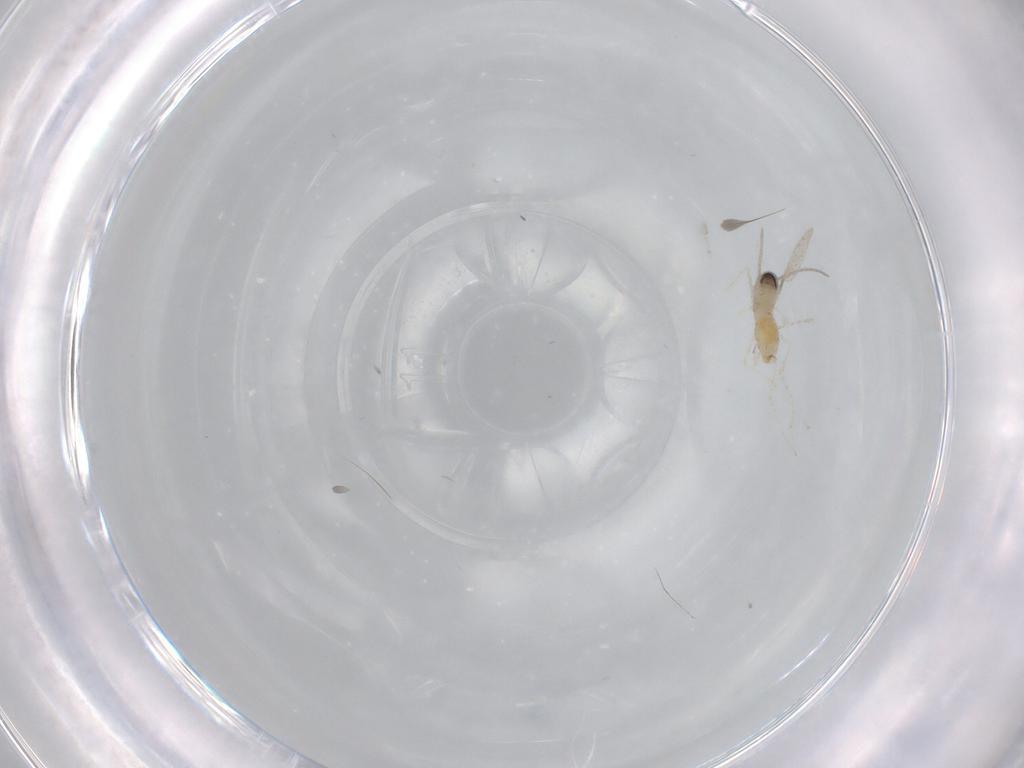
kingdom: Animalia
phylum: Arthropoda
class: Insecta
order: Diptera
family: Cecidomyiidae
